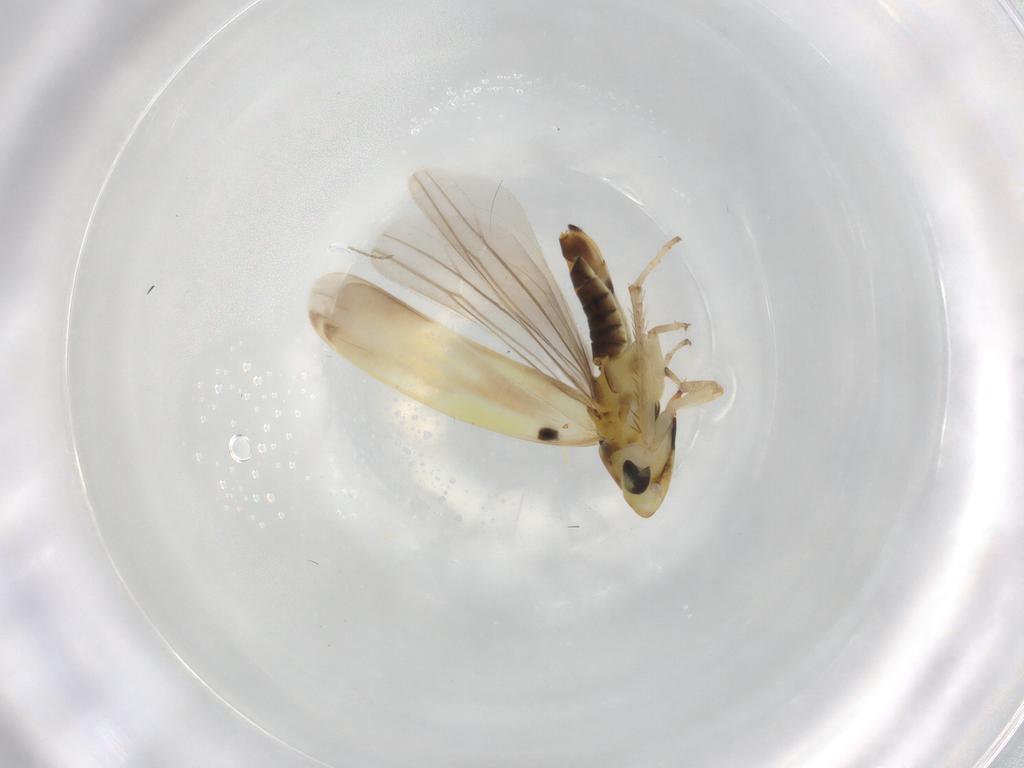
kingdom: Animalia
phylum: Arthropoda
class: Insecta
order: Hemiptera
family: Cicadellidae
